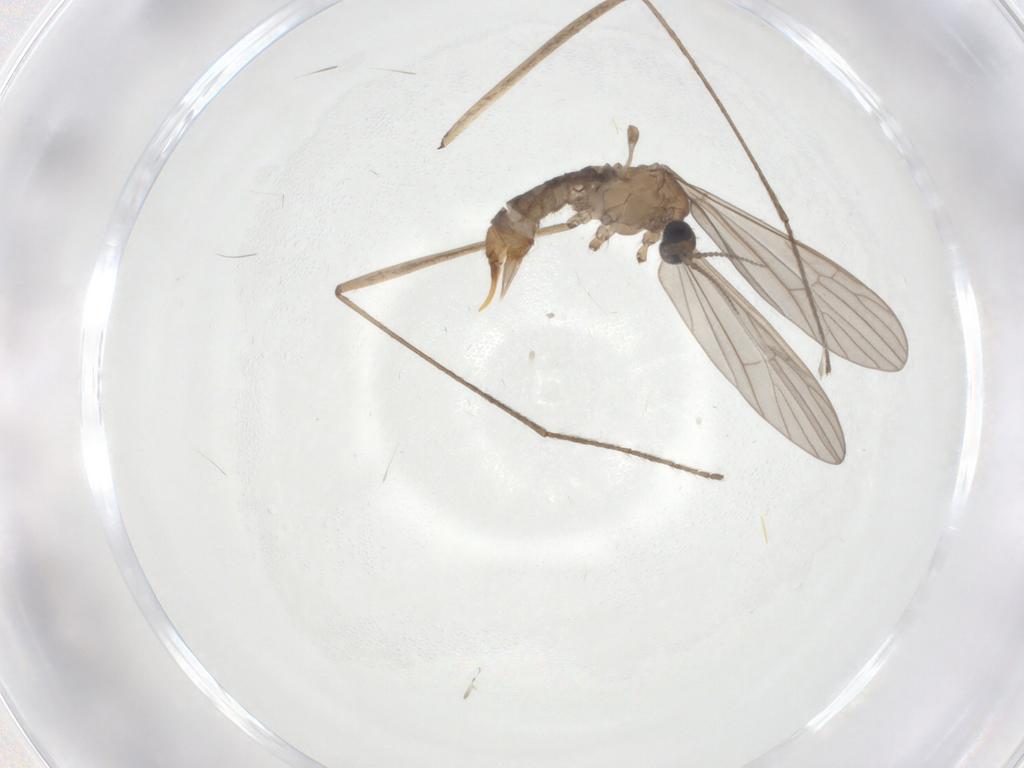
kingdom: Animalia
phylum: Arthropoda
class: Insecta
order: Diptera
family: Limoniidae
